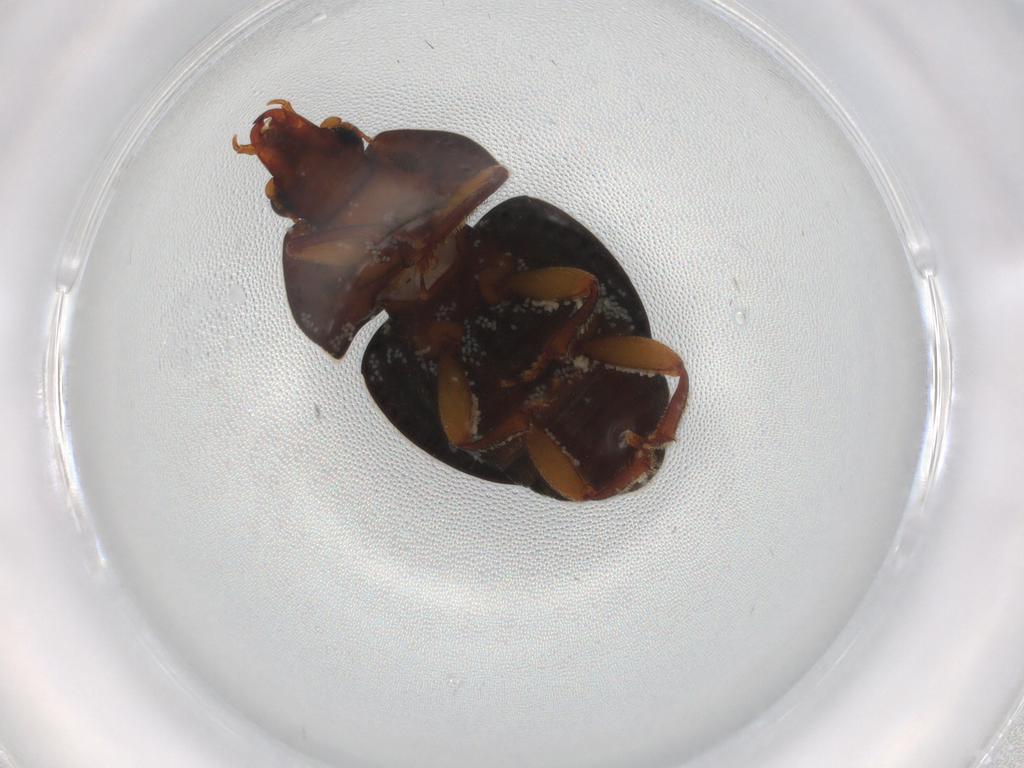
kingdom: Animalia
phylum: Arthropoda
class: Insecta
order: Coleoptera
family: Nitidulidae
